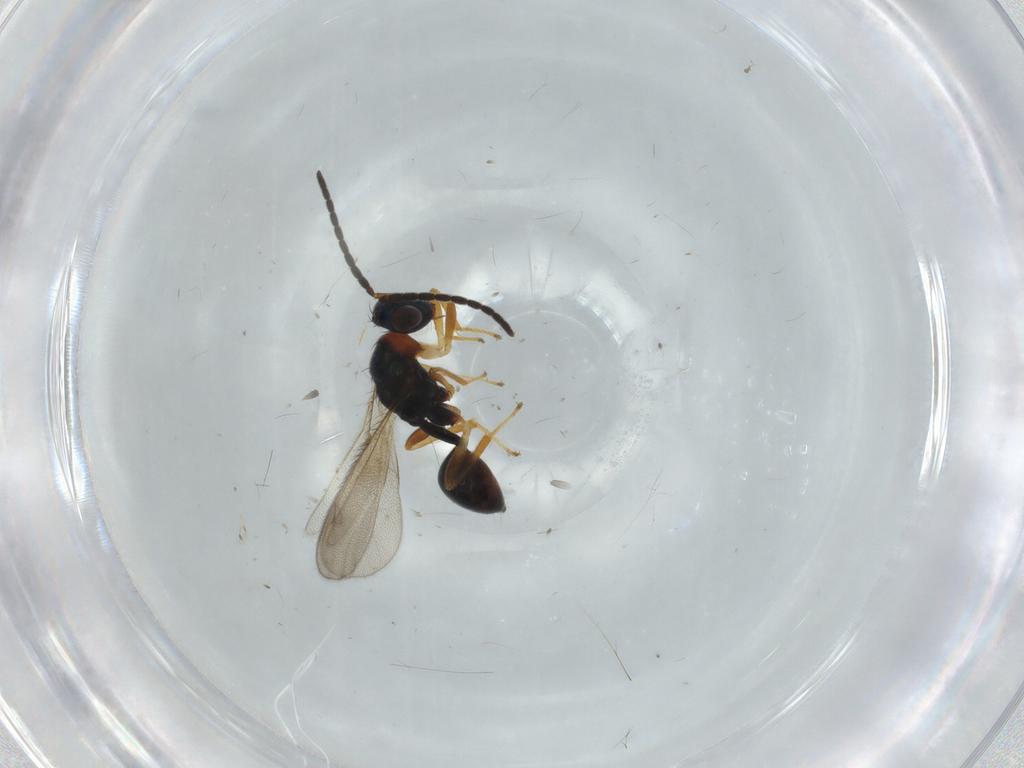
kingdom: Animalia
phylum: Arthropoda
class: Insecta
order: Hymenoptera
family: Diparidae
